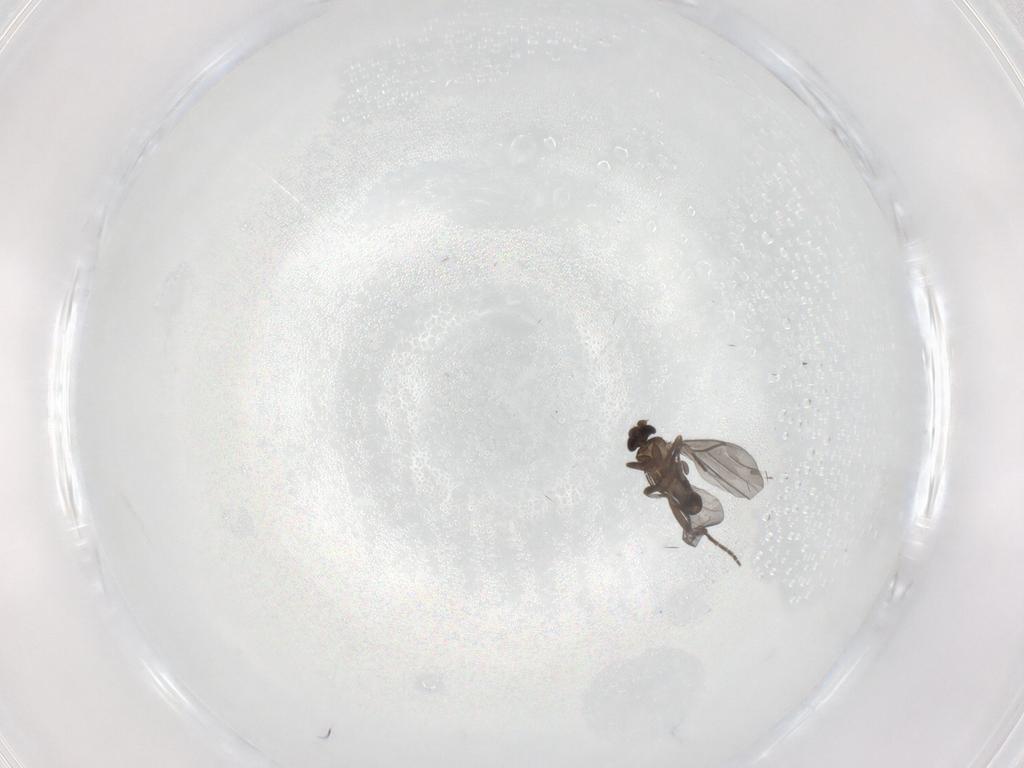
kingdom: Animalia
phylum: Arthropoda
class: Insecta
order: Diptera
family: Phoridae
